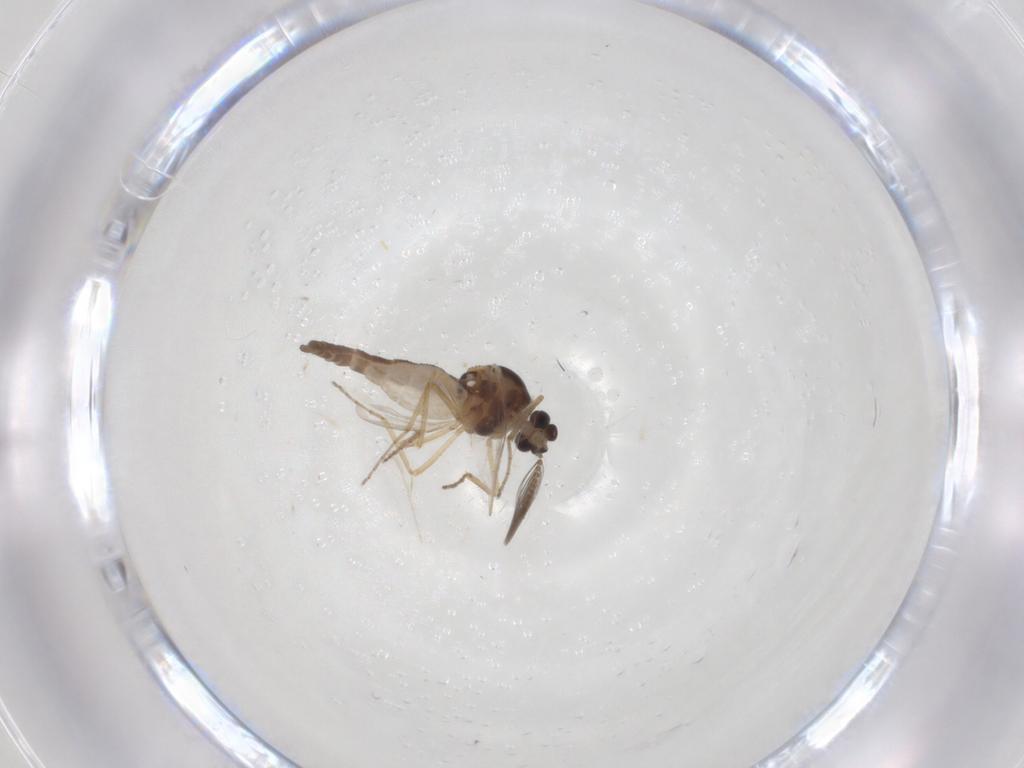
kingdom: Animalia
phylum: Arthropoda
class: Insecta
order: Diptera
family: Ceratopogonidae
